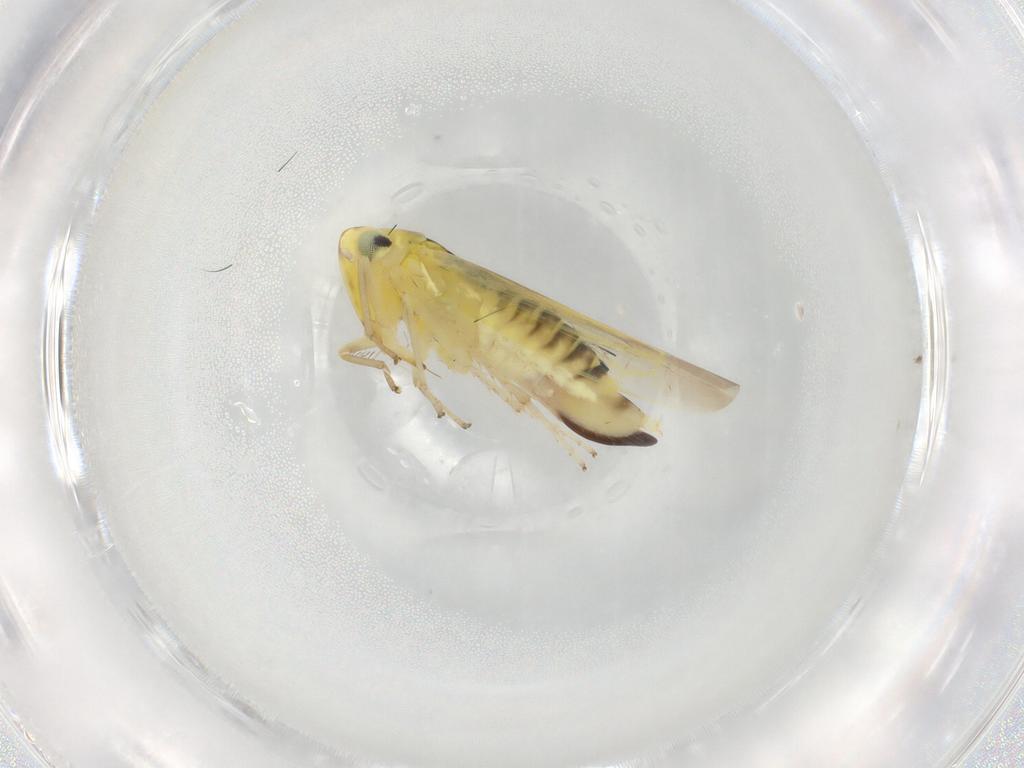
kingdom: Animalia
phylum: Arthropoda
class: Insecta
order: Hemiptera
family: Cicadellidae
